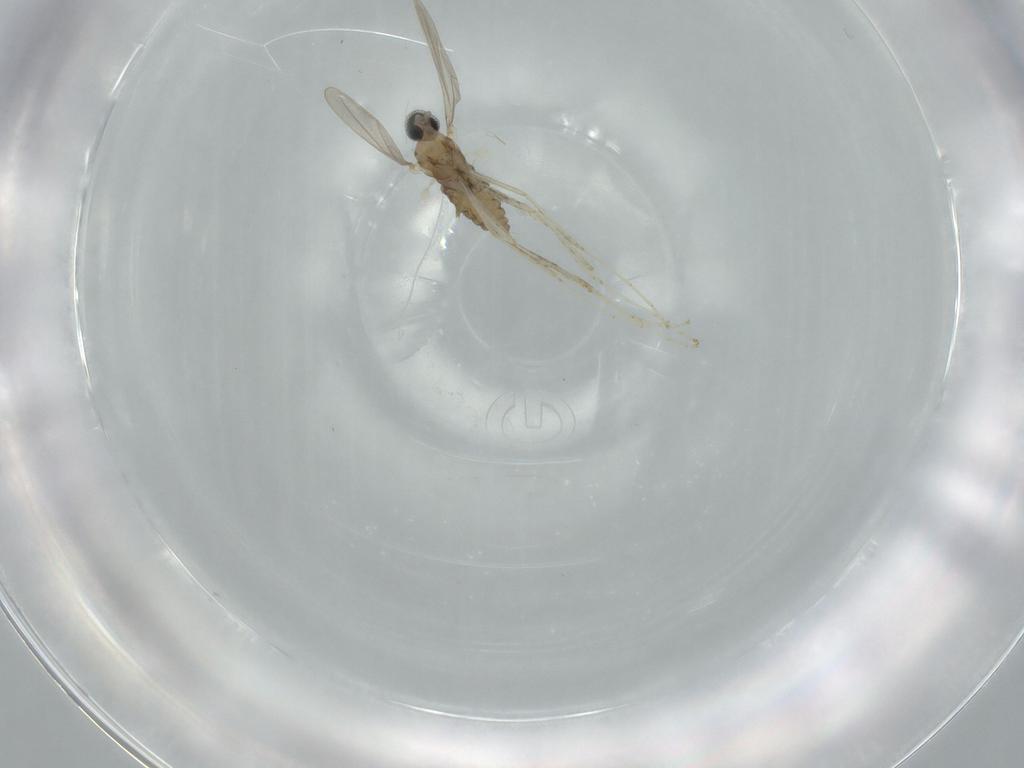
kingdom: Animalia
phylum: Arthropoda
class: Insecta
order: Diptera
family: Cecidomyiidae
